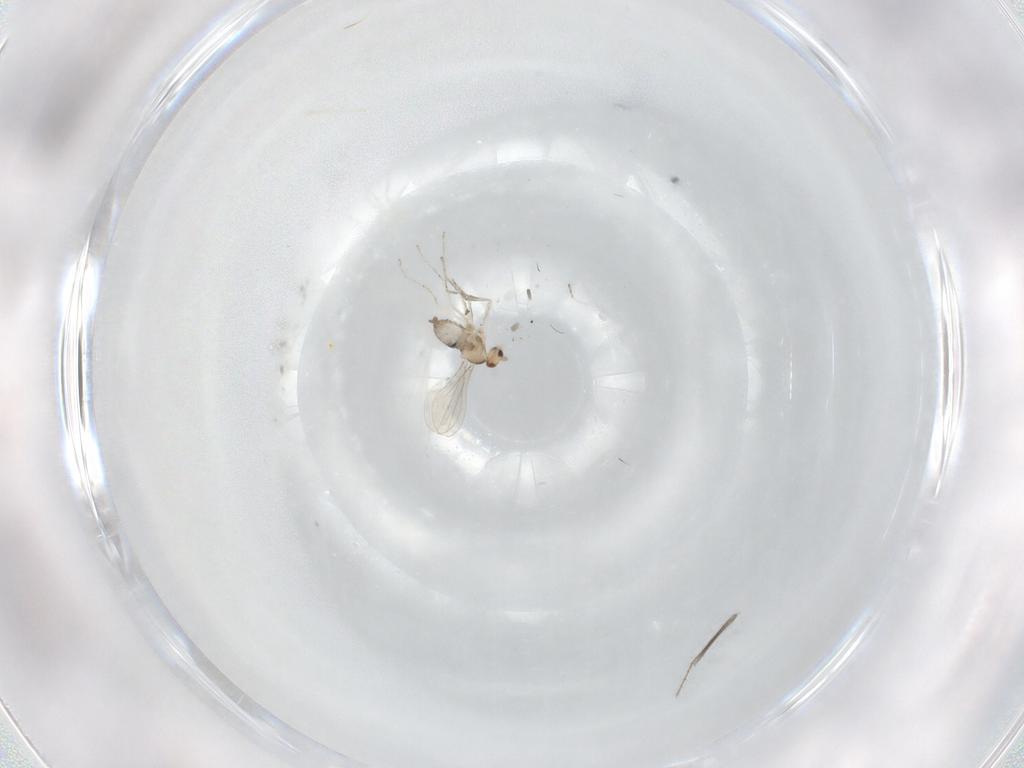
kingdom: Animalia
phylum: Arthropoda
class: Insecta
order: Diptera
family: Cecidomyiidae
